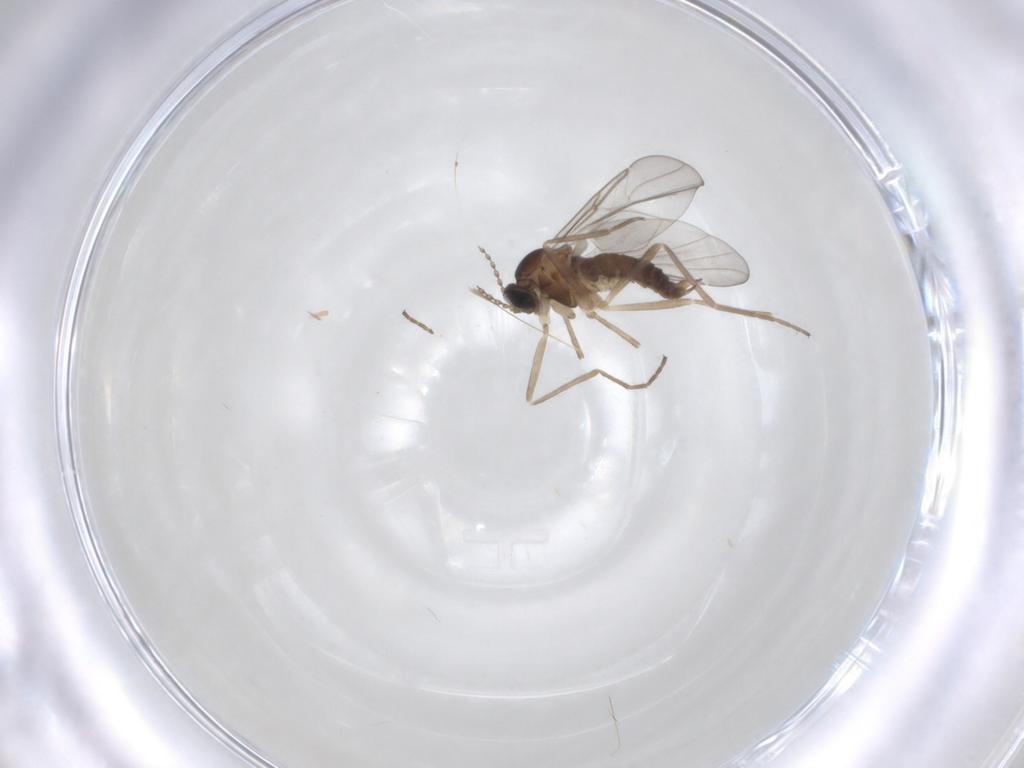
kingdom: Animalia
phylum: Arthropoda
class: Insecta
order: Diptera
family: Cecidomyiidae
